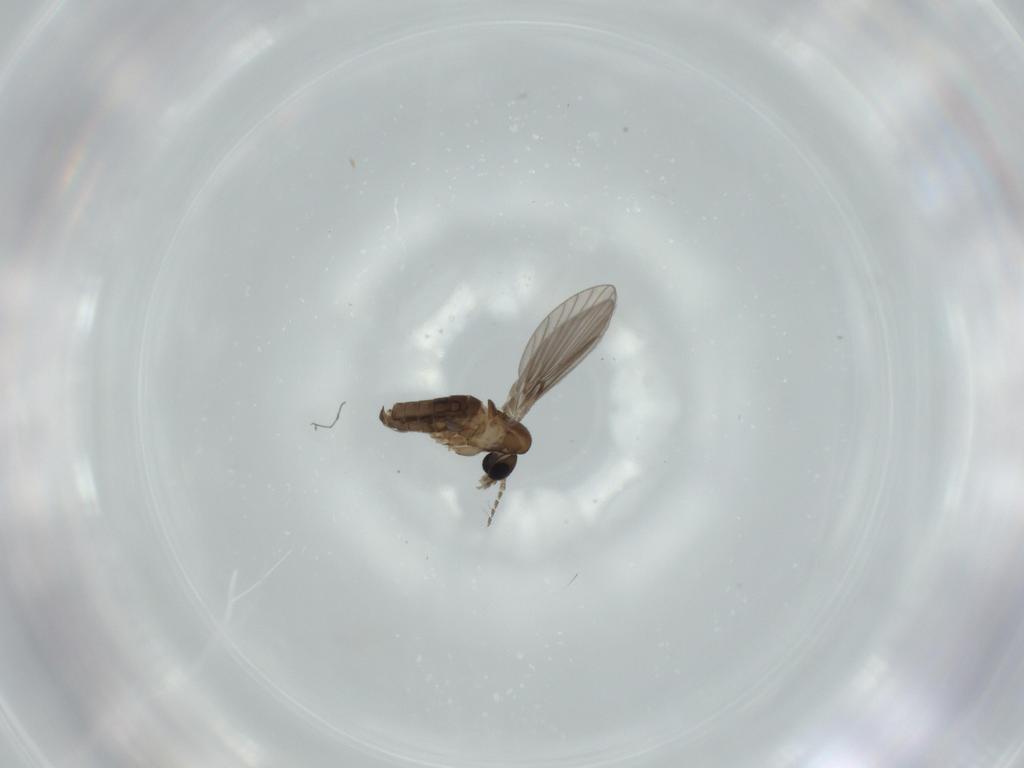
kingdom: Animalia
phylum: Arthropoda
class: Insecta
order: Diptera
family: Psychodidae
